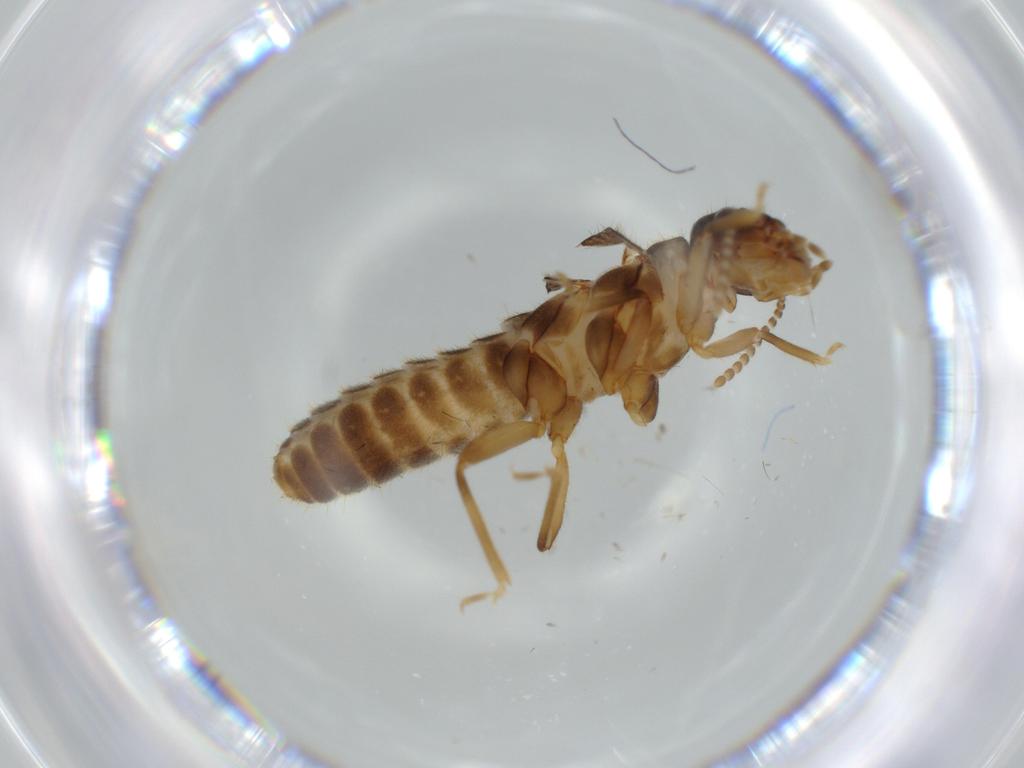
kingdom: Animalia
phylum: Arthropoda
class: Insecta
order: Blattodea
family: Termitidae
